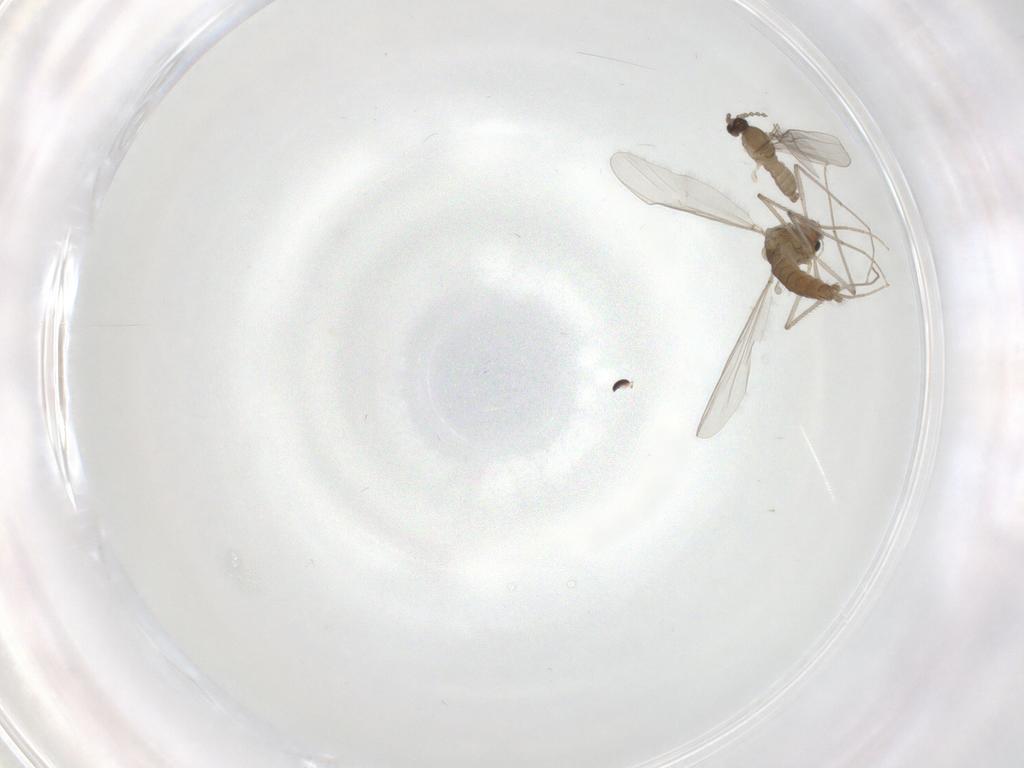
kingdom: Animalia
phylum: Arthropoda
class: Insecta
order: Diptera
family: Chironomidae
